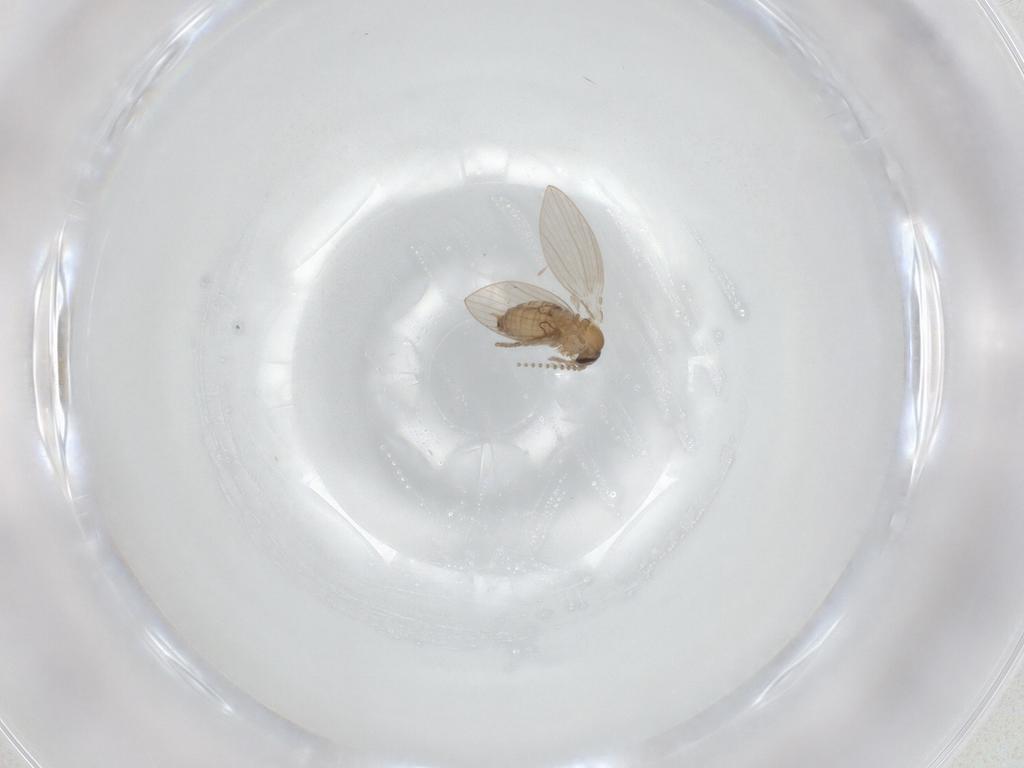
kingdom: Animalia
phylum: Arthropoda
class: Insecta
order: Diptera
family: Psychodidae
